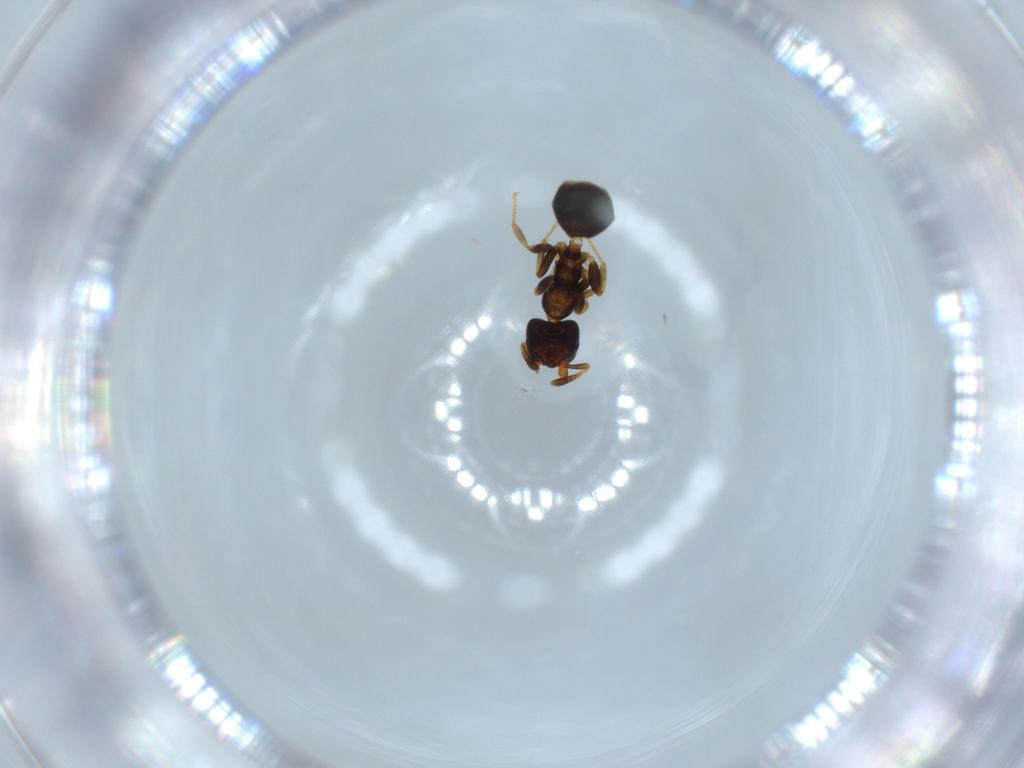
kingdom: Animalia
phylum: Arthropoda
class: Insecta
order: Hymenoptera
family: Formicidae
